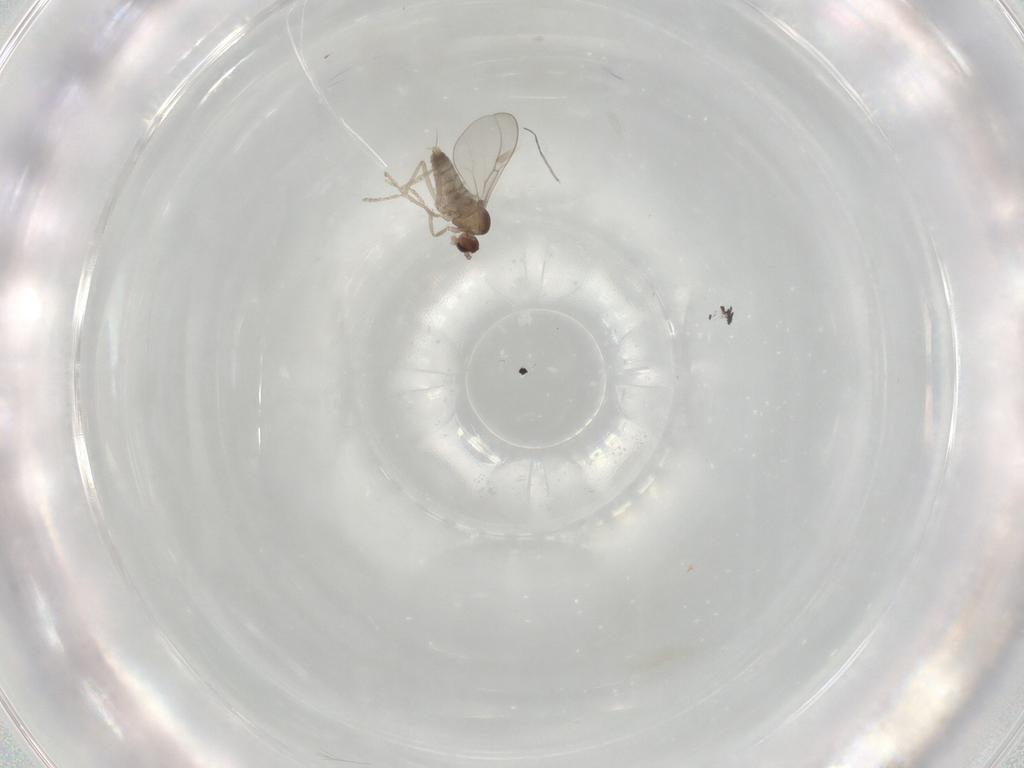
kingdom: Animalia
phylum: Arthropoda
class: Insecta
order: Diptera
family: Cecidomyiidae
